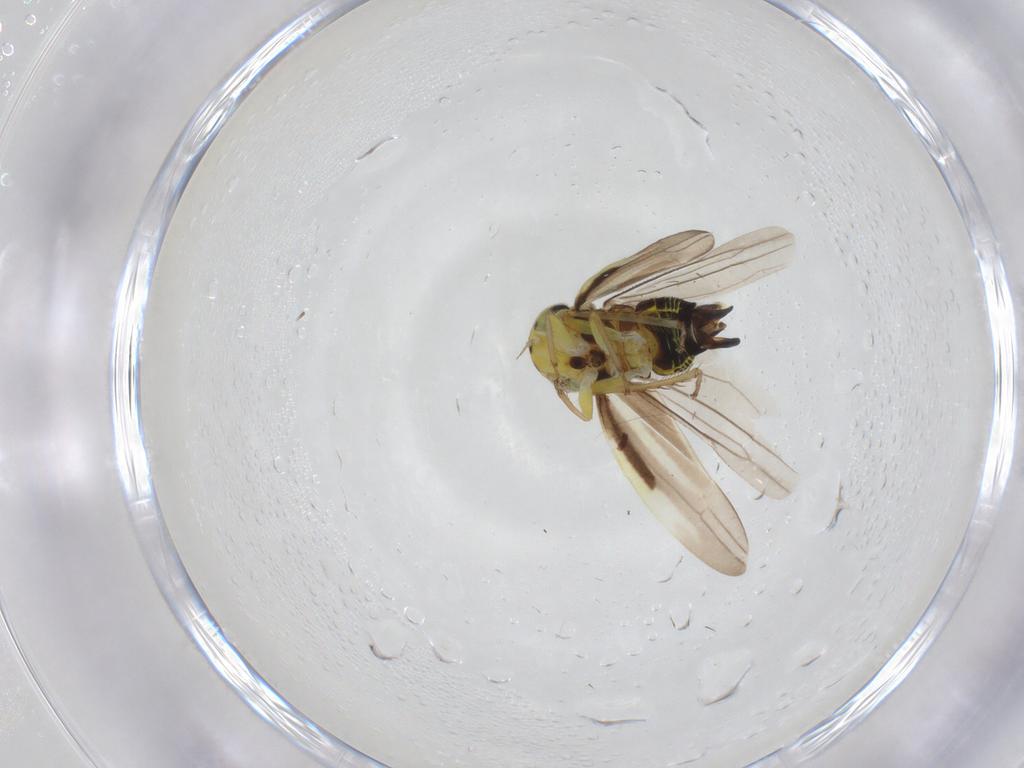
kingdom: Animalia
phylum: Arthropoda
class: Insecta
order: Hemiptera
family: Cicadellidae
